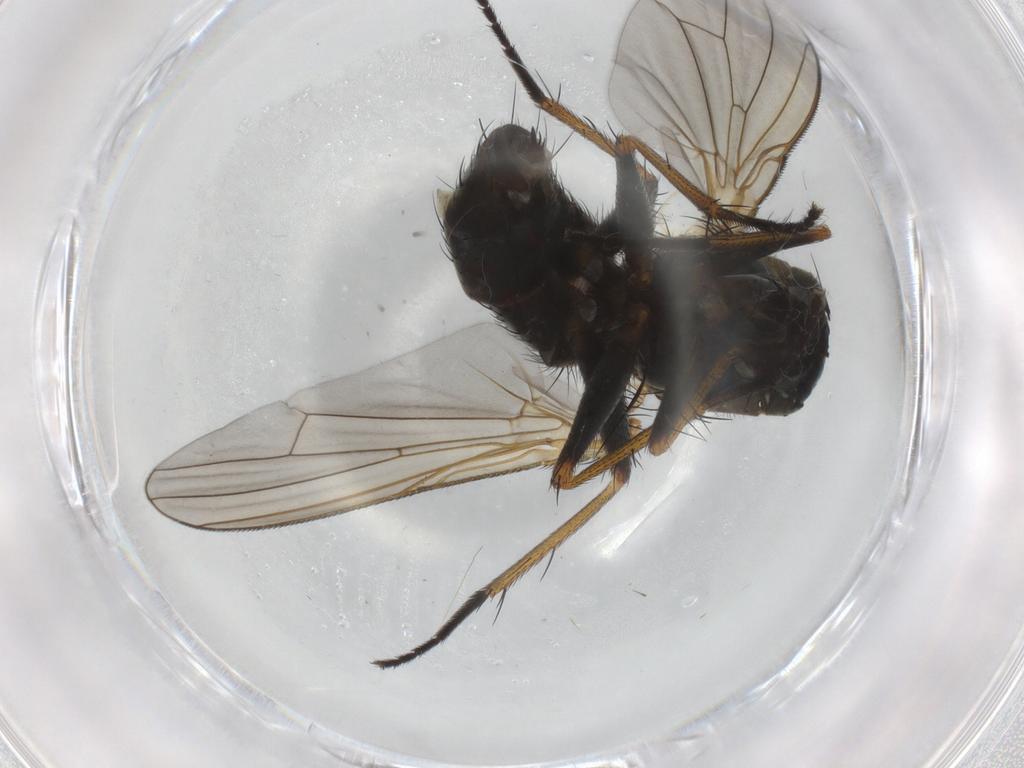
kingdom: Animalia
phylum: Arthropoda
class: Insecta
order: Diptera
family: Muscidae
